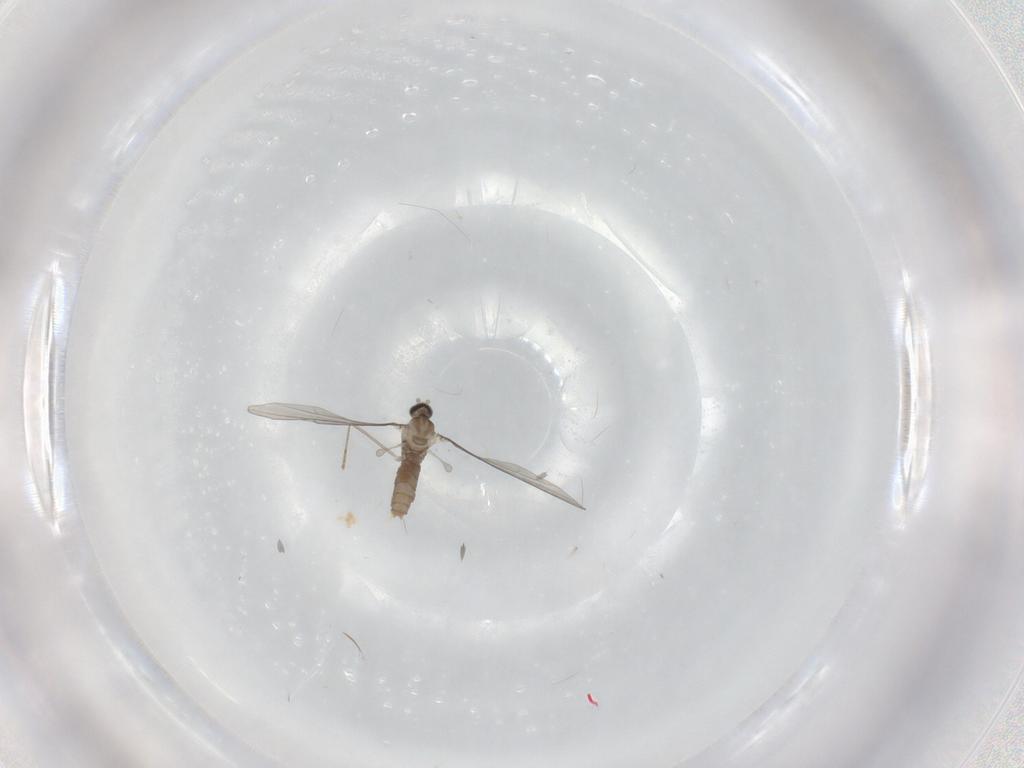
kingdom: Animalia
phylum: Arthropoda
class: Insecta
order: Diptera
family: Cecidomyiidae
